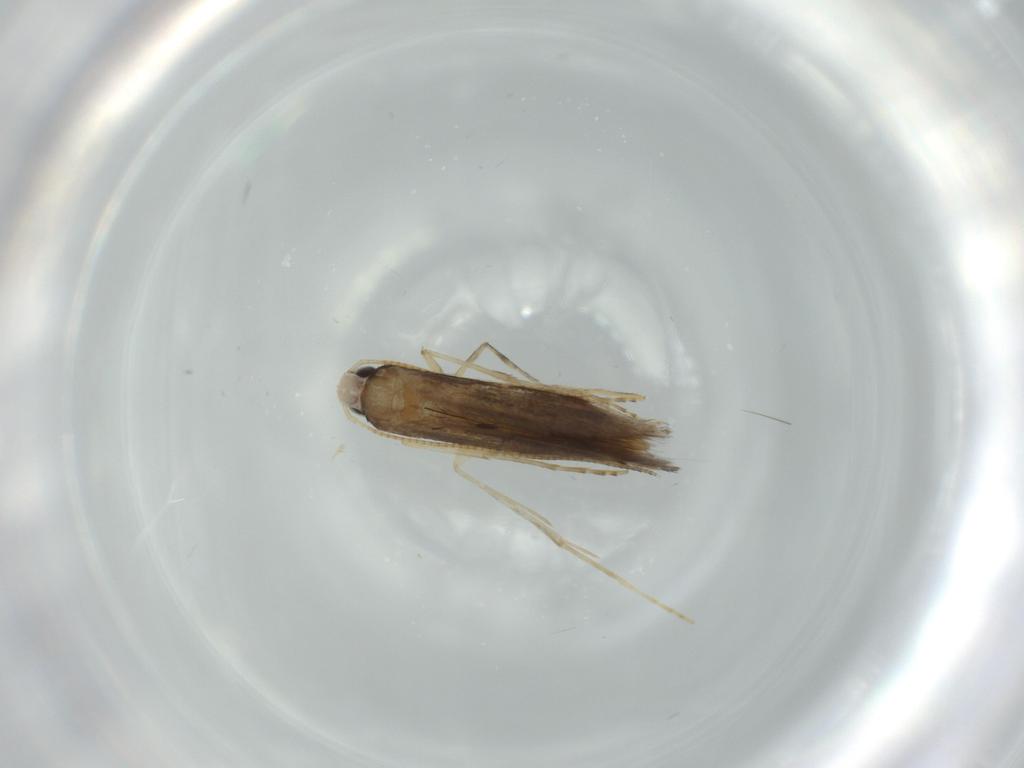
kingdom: Animalia
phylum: Arthropoda
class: Insecta
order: Lepidoptera
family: Gracillariidae
